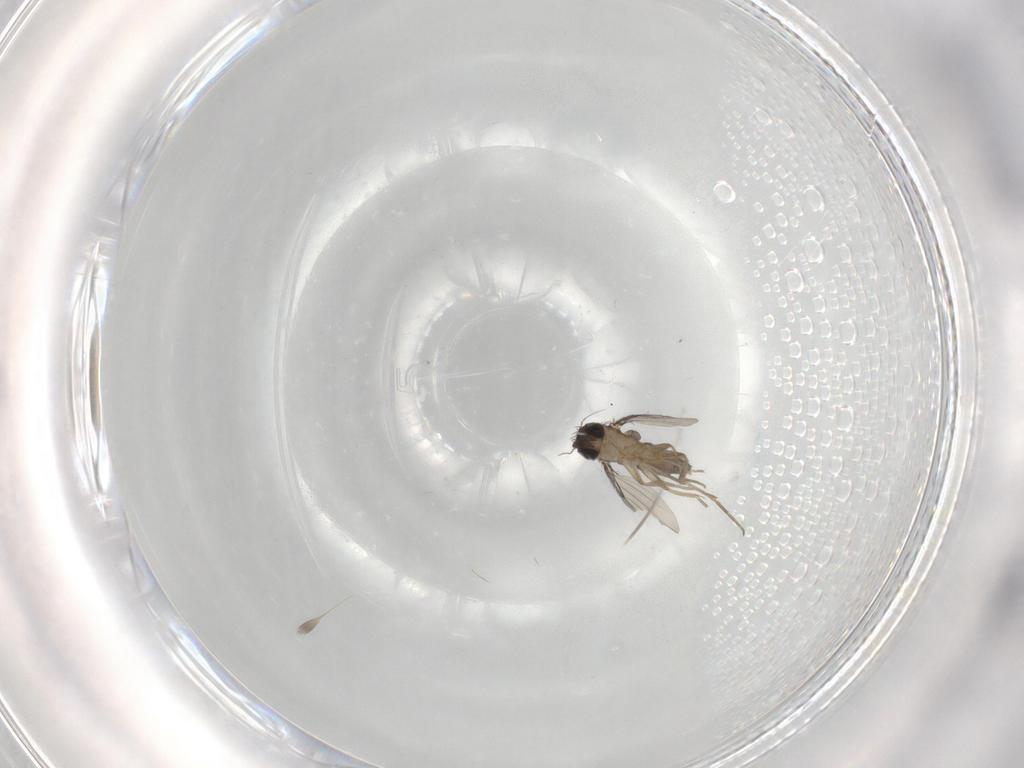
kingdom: Animalia
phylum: Arthropoda
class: Insecta
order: Diptera
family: Phoridae
